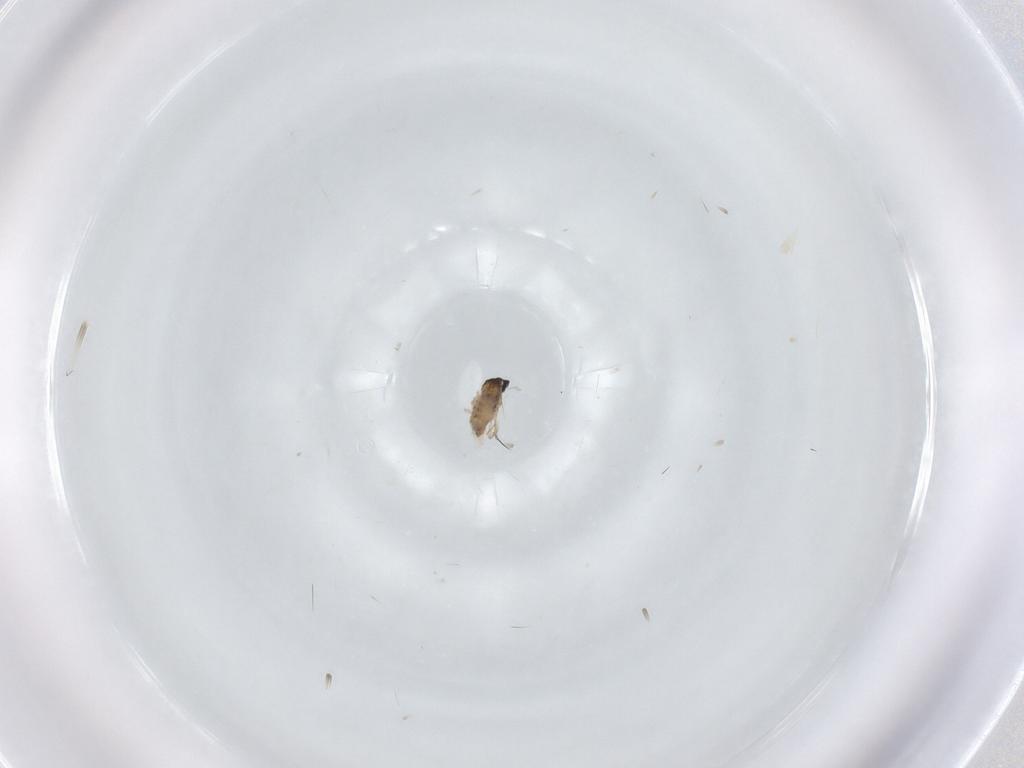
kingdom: Animalia
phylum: Arthropoda
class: Insecta
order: Diptera
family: Cecidomyiidae
